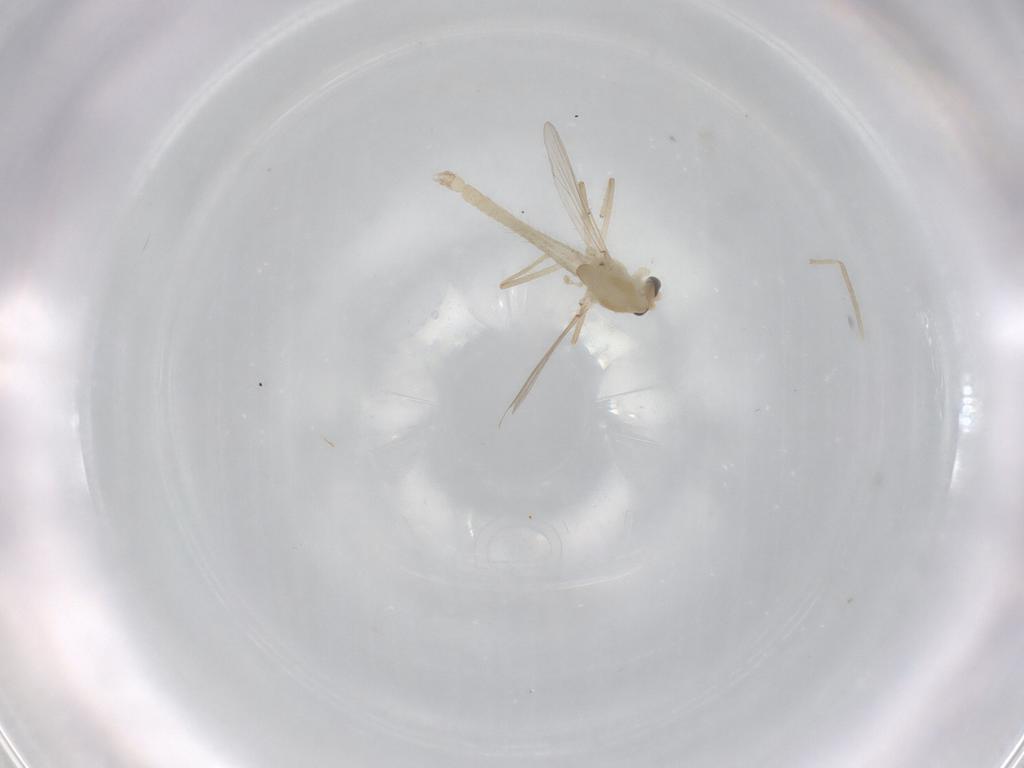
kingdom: Animalia
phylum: Arthropoda
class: Insecta
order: Diptera
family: Chironomidae
